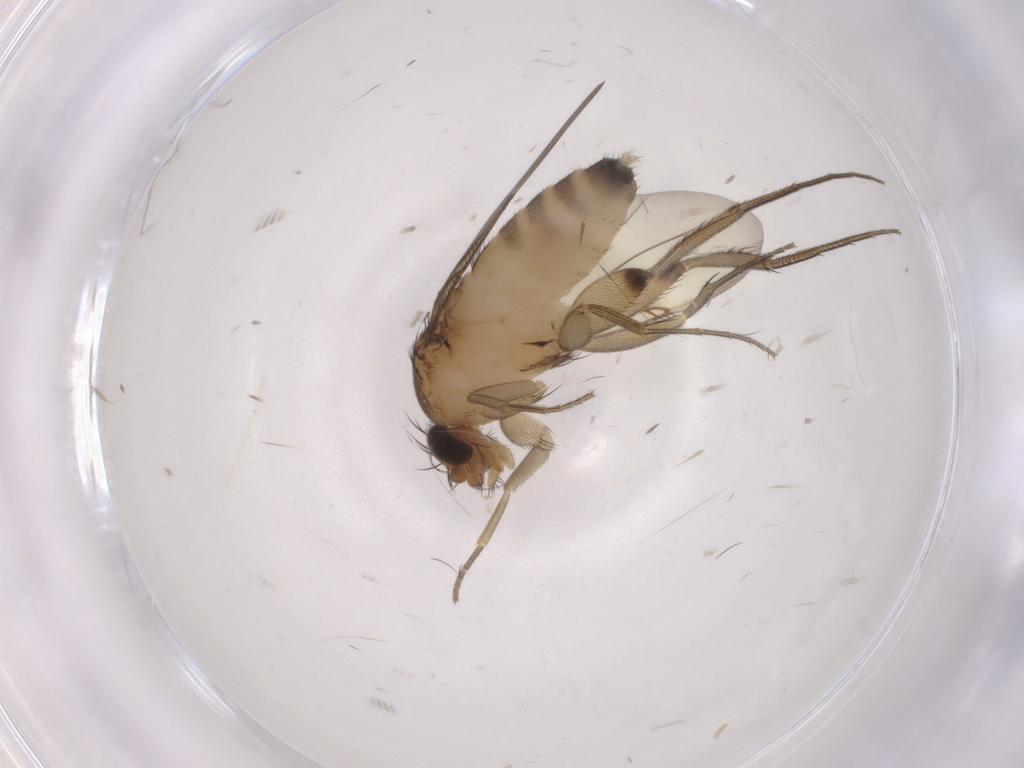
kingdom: Animalia
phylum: Arthropoda
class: Insecta
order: Diptera
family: Phoridae
